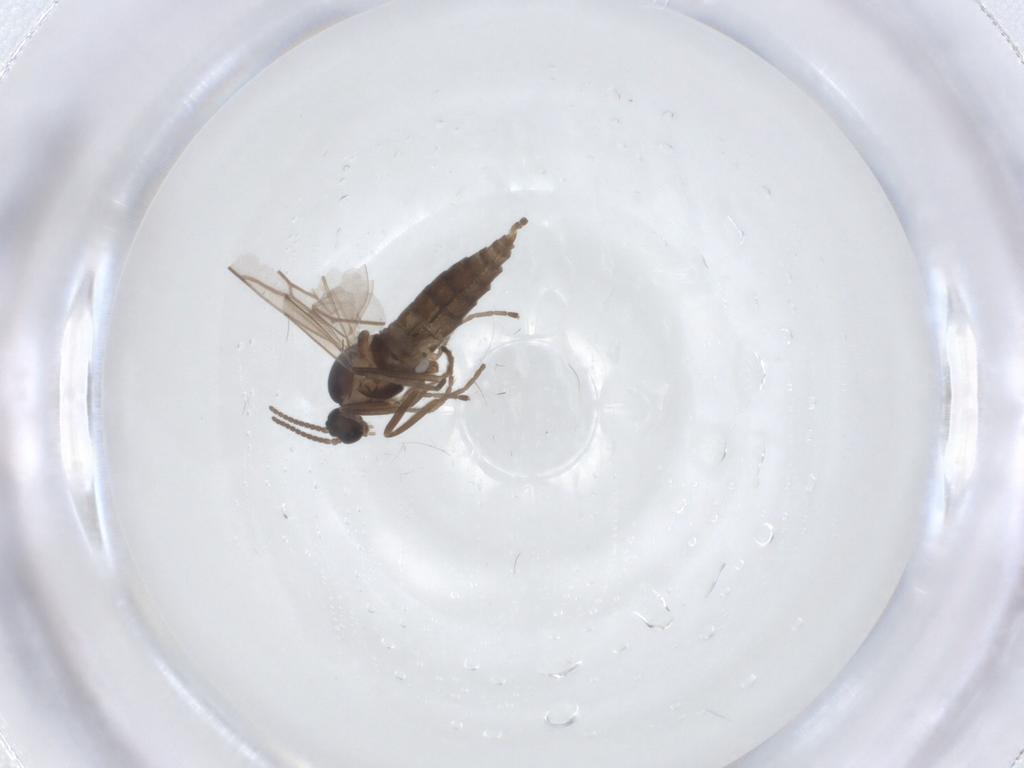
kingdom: Animalia
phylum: Arthropoda
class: Insecta
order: Diptera
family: Cecidomyiidae
